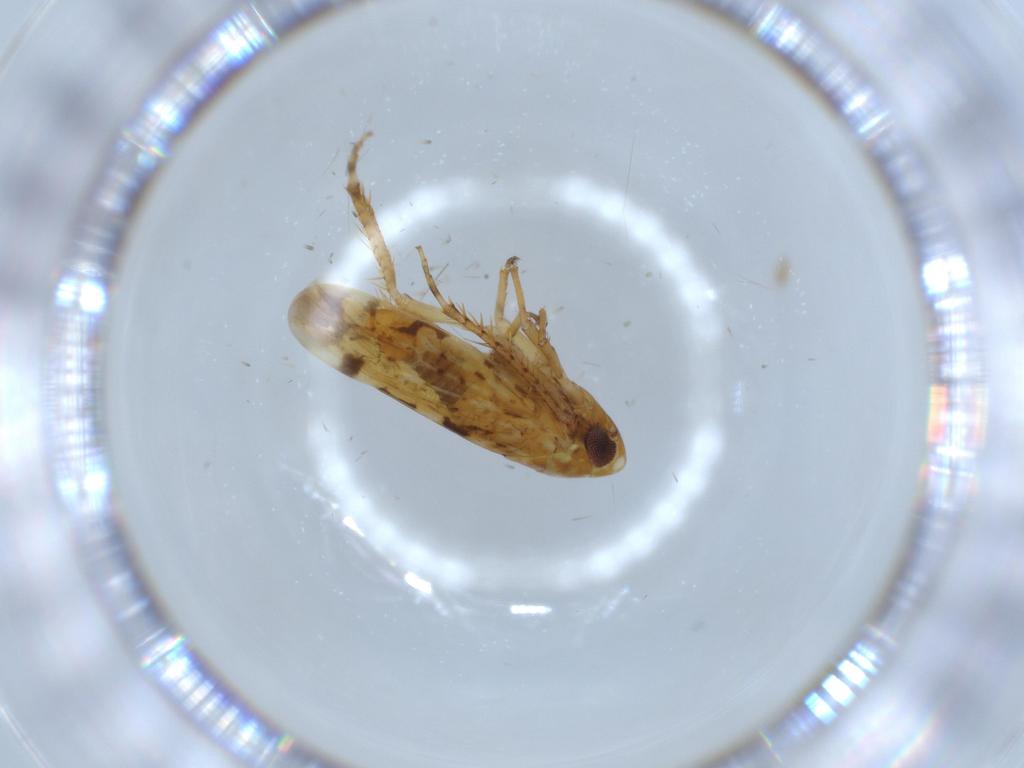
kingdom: Animalia
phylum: Arthropoda
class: Insecta
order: Hemiptera
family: Cicadellidae
